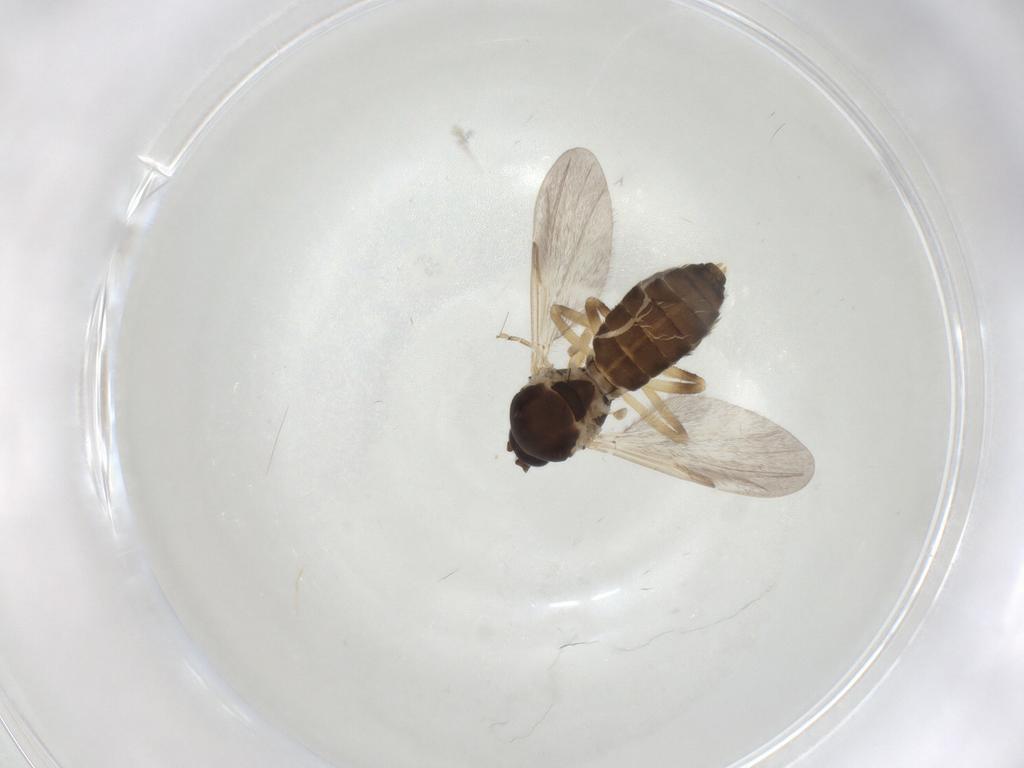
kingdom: Animalia
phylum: Arthropoda
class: Insecta
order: Diptera
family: Ceratopogonidae
